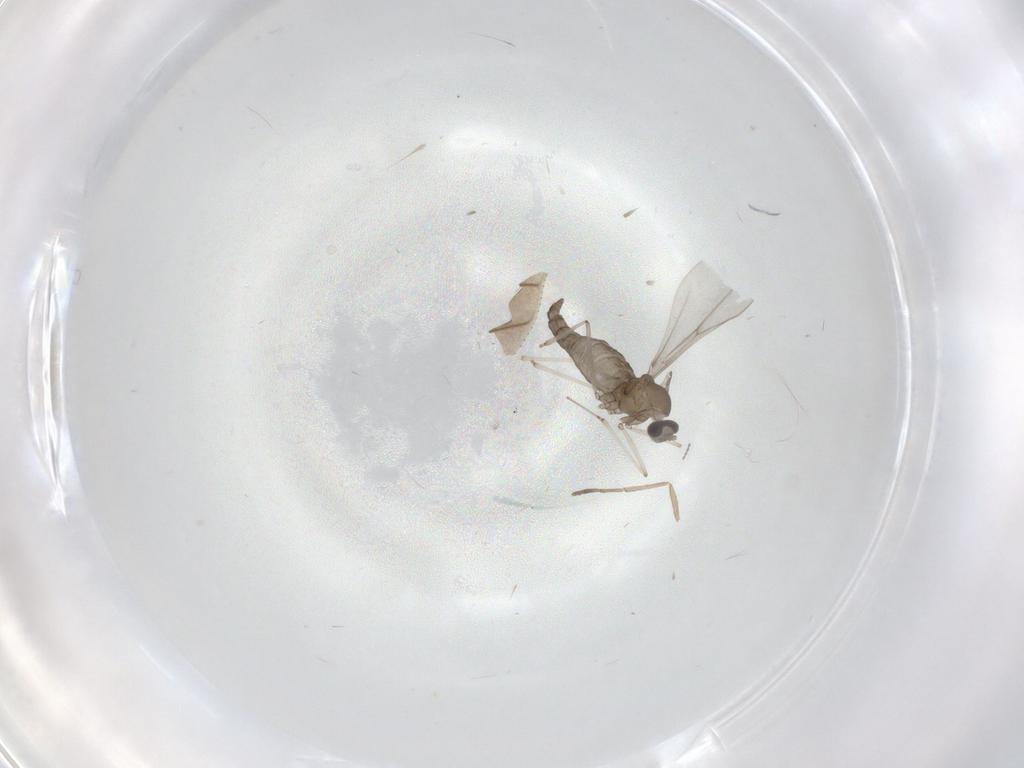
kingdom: Animalia
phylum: Arthropoda
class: Insecta
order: Diptera
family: Cecidomyiidae
